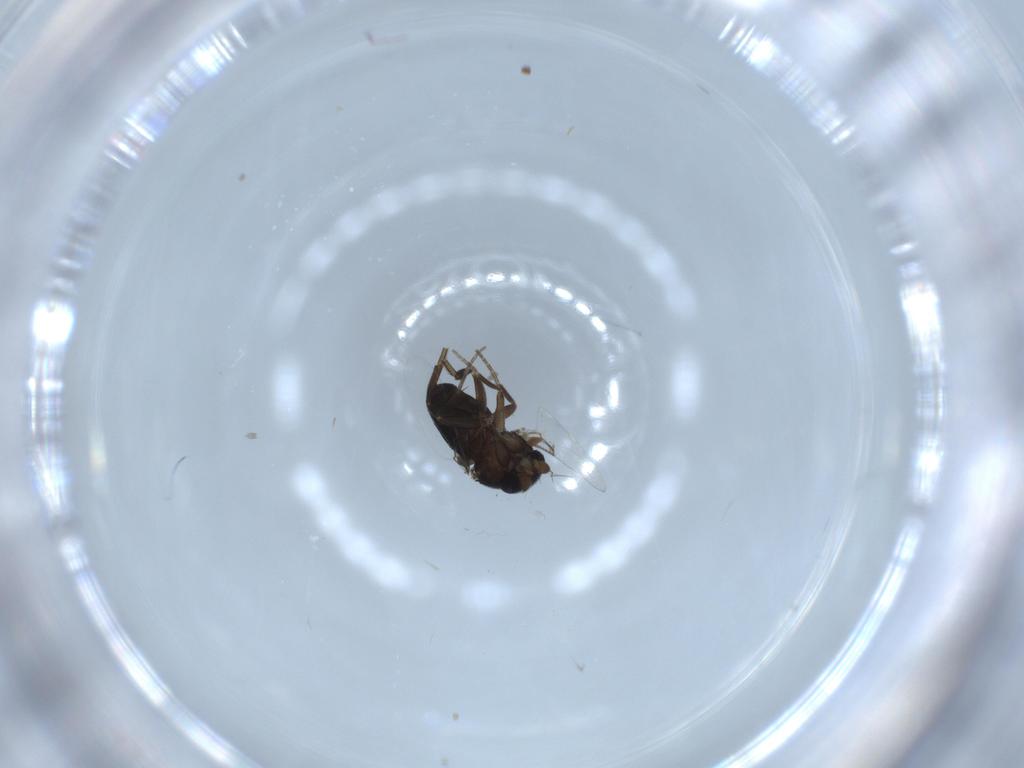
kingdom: Animalia
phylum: Arthropoda
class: Insecta
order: Diptera
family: Phoridae
